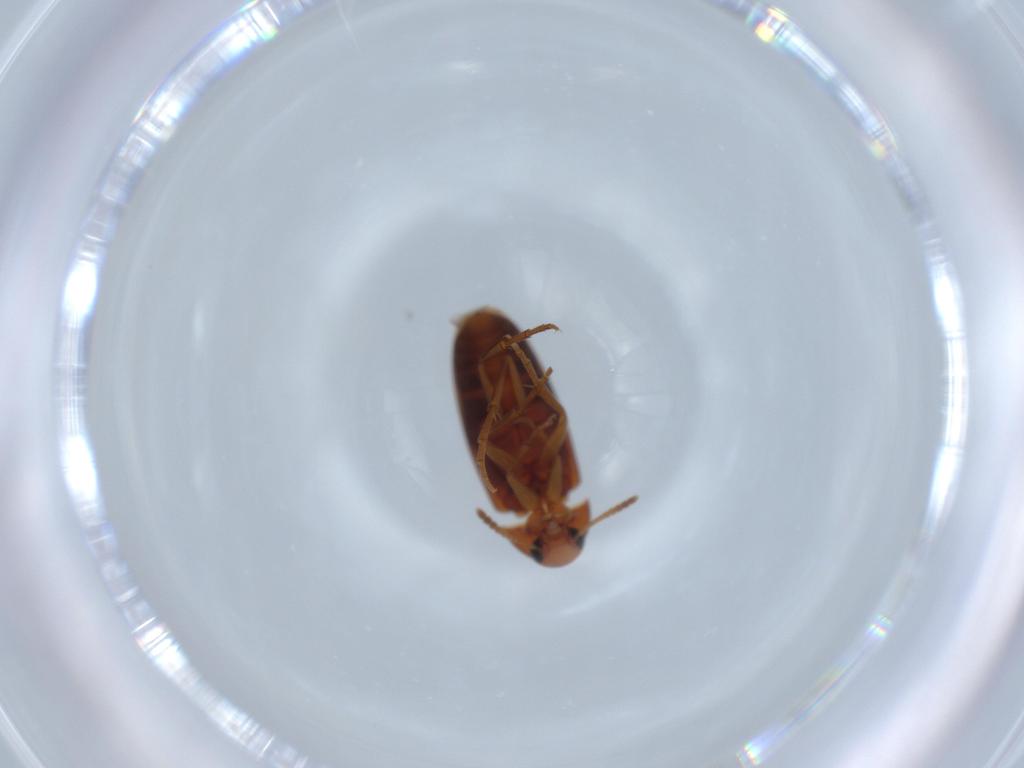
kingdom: Animalia
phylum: Arthropoda
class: Insecta
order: Coleoptera
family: Scraptiidae
